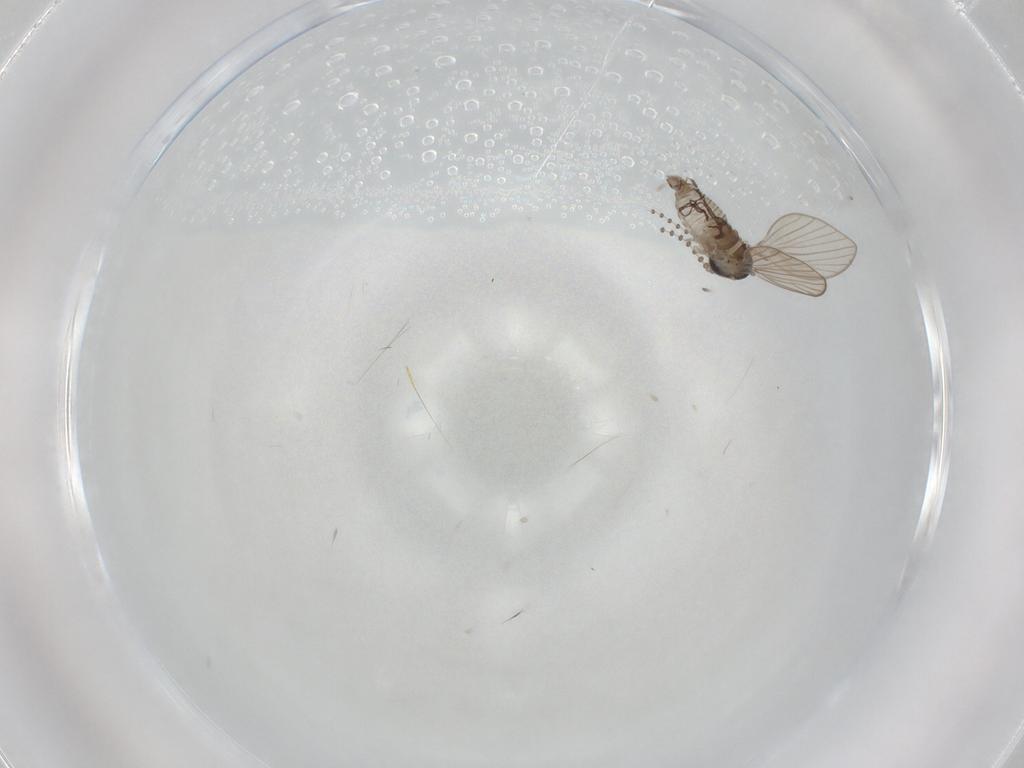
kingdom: Animalia
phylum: Arthropoda
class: Insecta
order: Diptera
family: Psychodidae
